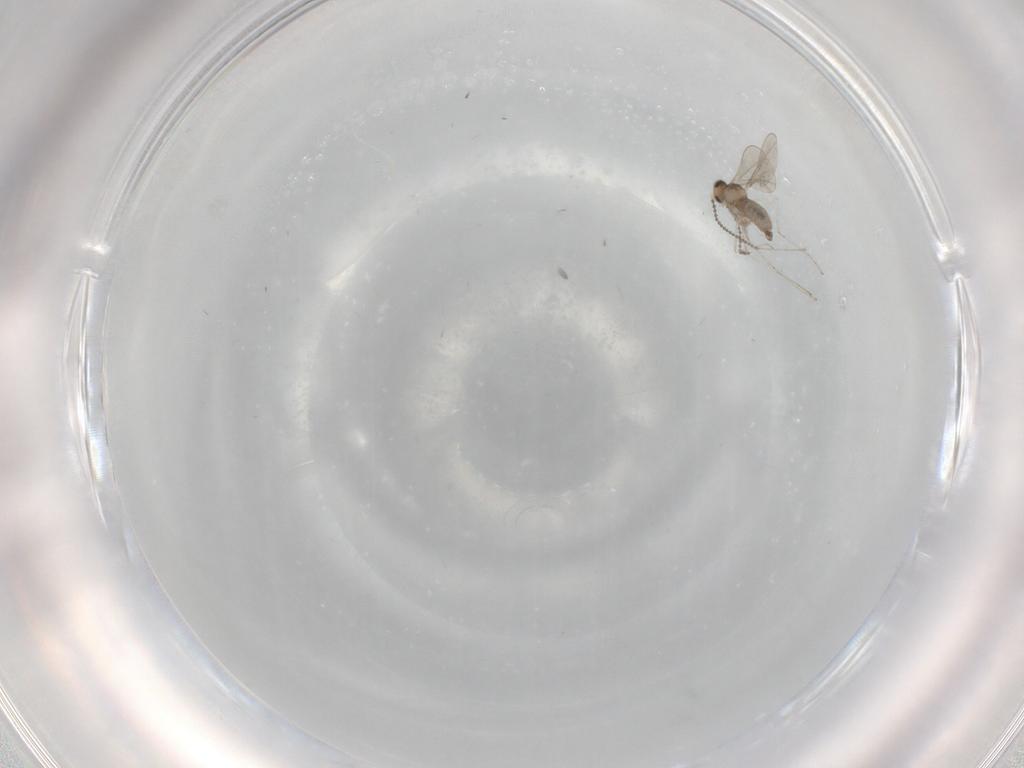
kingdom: Animalia
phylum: Arthropoda
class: Insecta
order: Diptera
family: Cecidomyiidae
